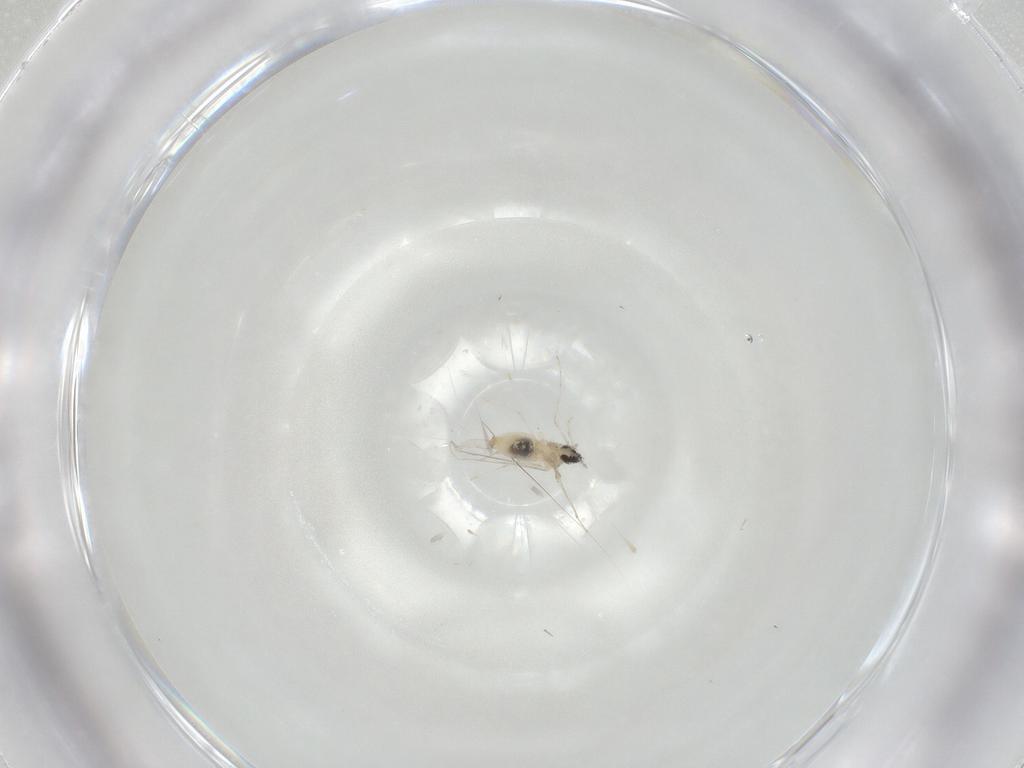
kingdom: Animalia
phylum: Arthropoda
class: Insecta
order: Diptera
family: Cecidomyiidae
